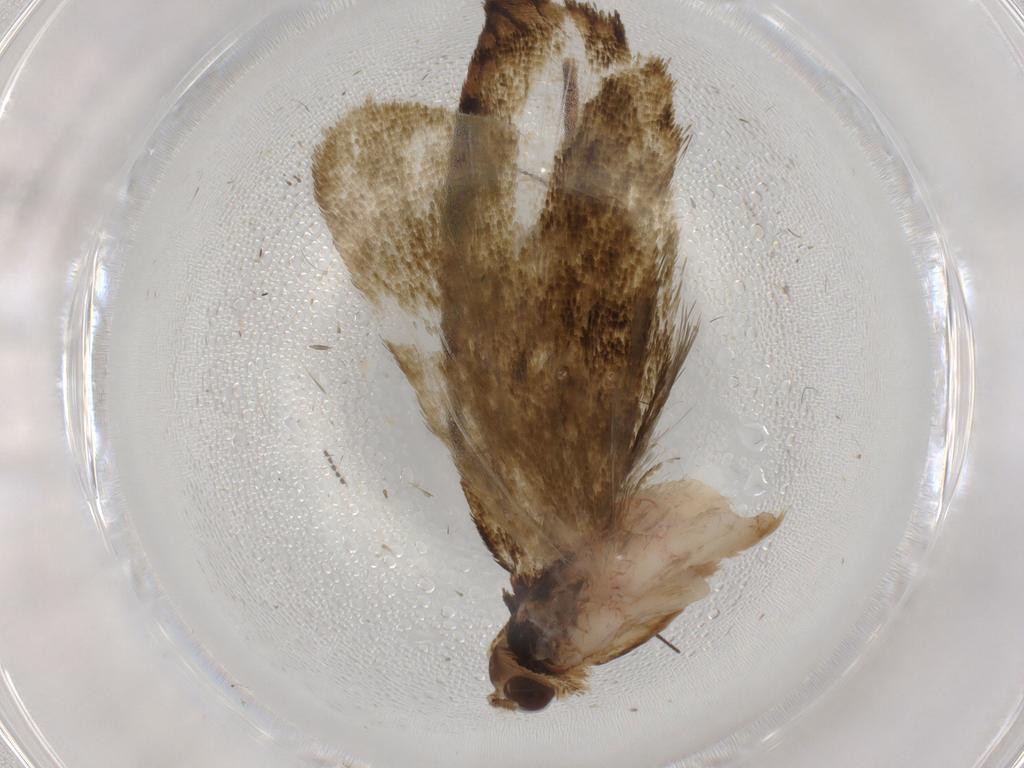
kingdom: Animalia
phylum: Arthropoda
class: Insecta
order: Lepidoptera
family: Geometridae
